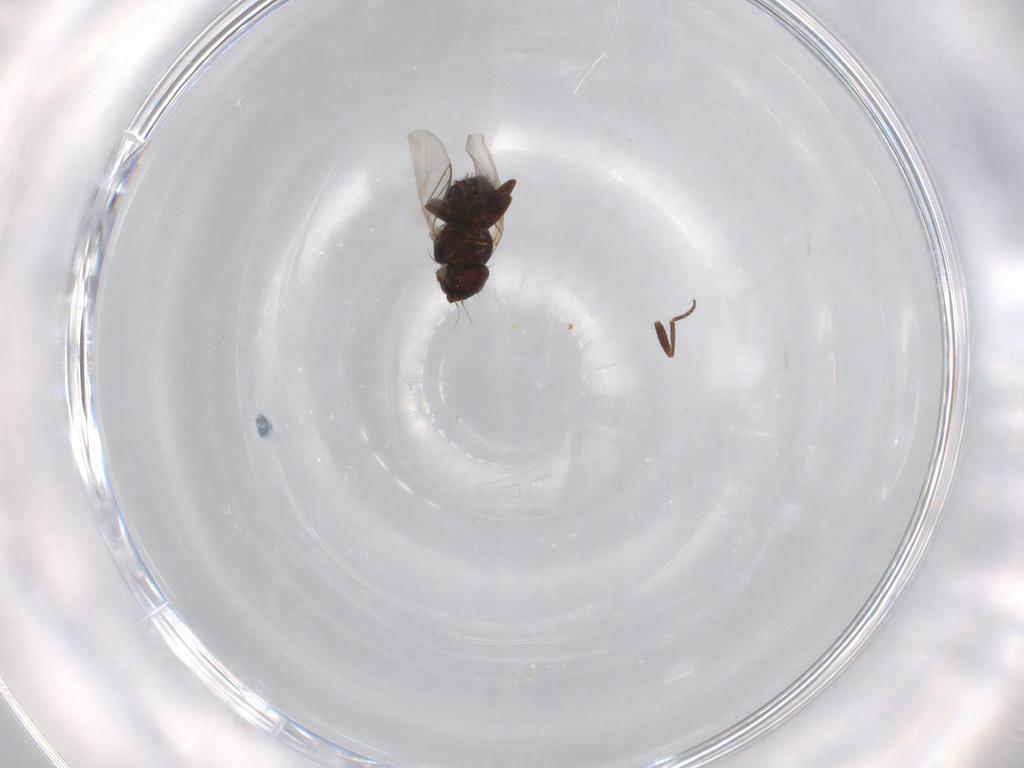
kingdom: Animalia
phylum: Arthropoda
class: Insecta
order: Diptera
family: Cecidomyiidae
